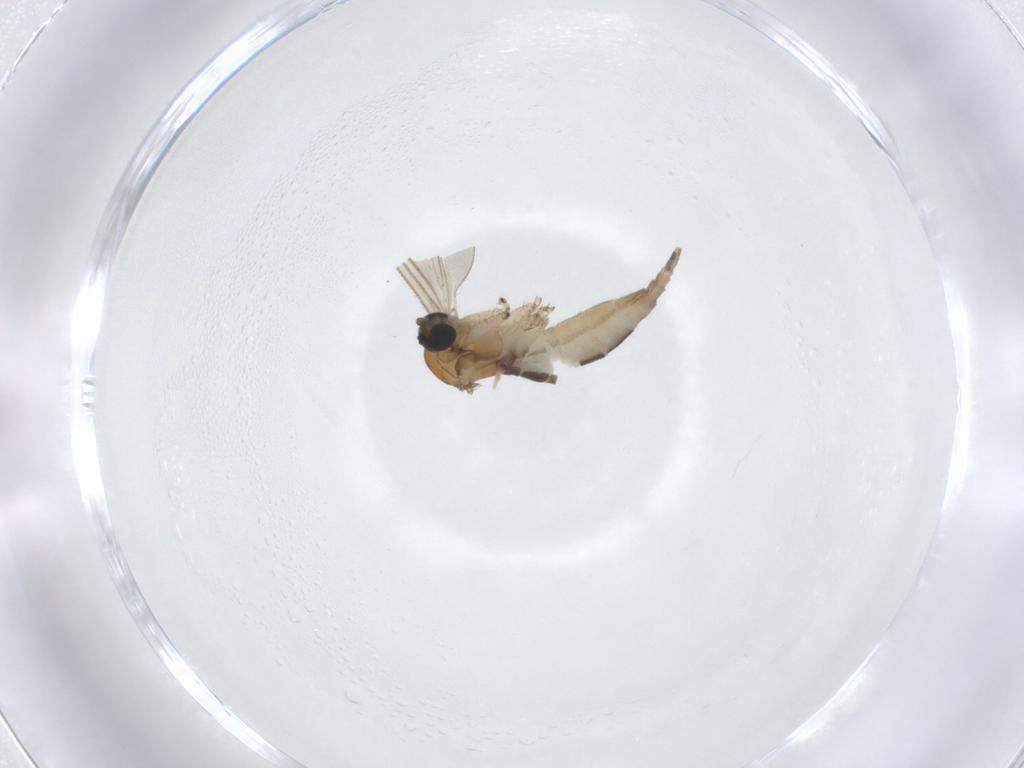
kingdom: Animalia
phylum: Arthropoda
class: Insecta
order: Diptera
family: Sciaridae
